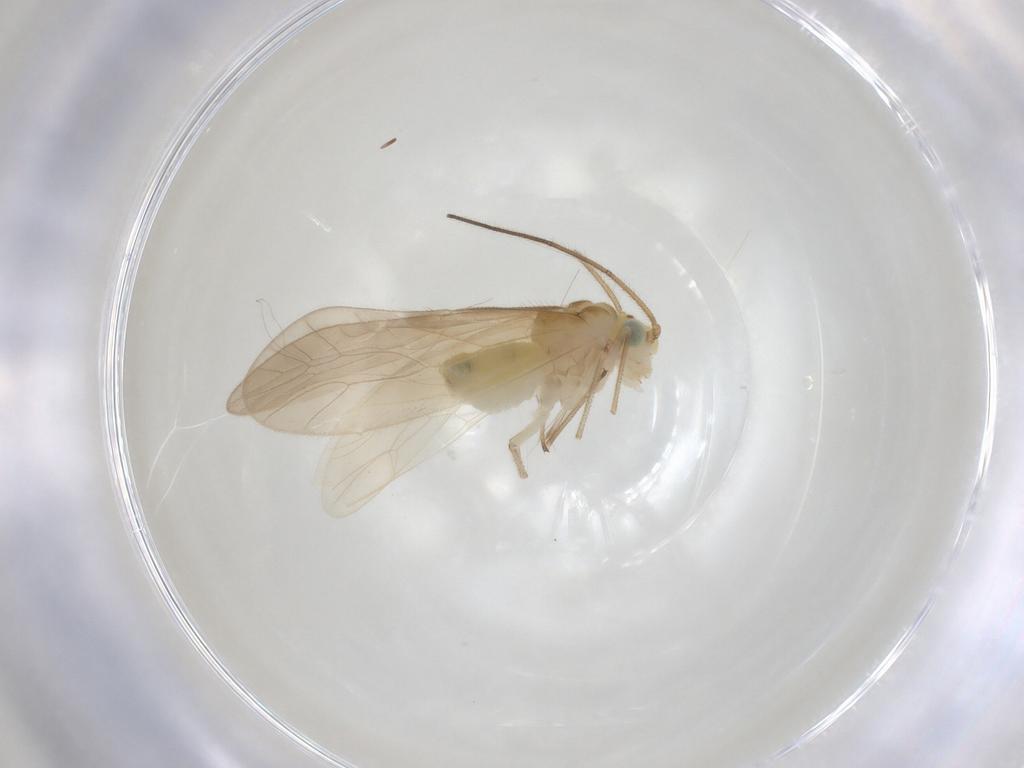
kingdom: Animalia
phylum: Arthropoda
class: Insecta
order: Psocodea
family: Caeciliusidae
